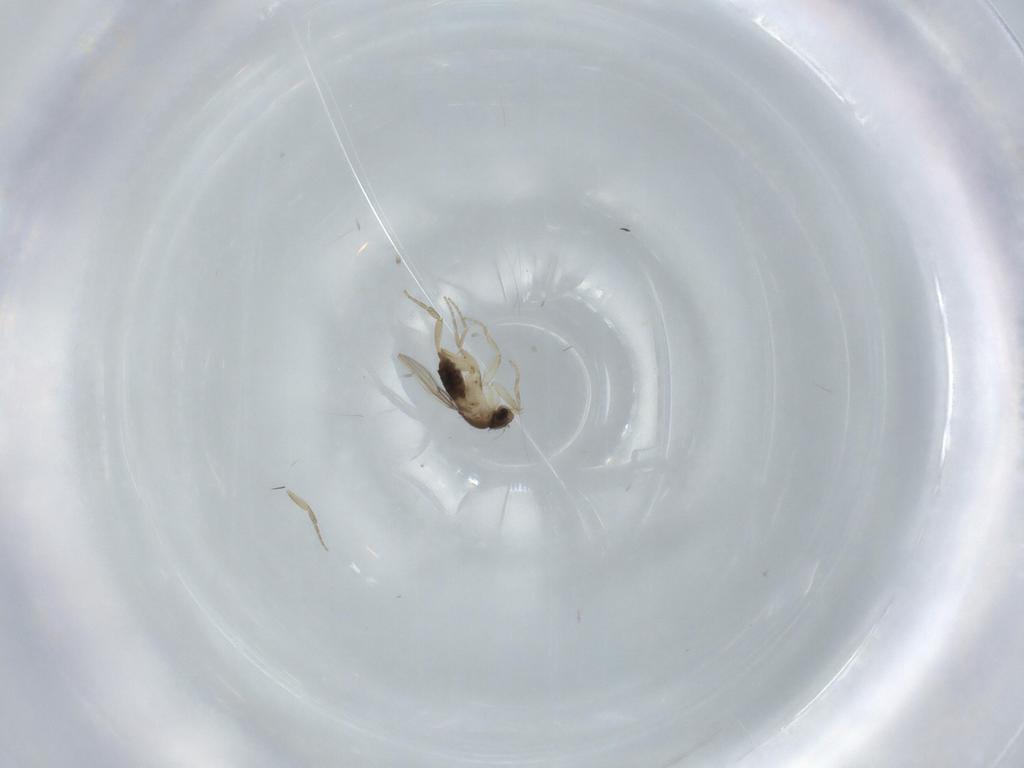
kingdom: Animalia
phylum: Arthropoda
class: Insecta
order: Diptera
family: Phoridae
